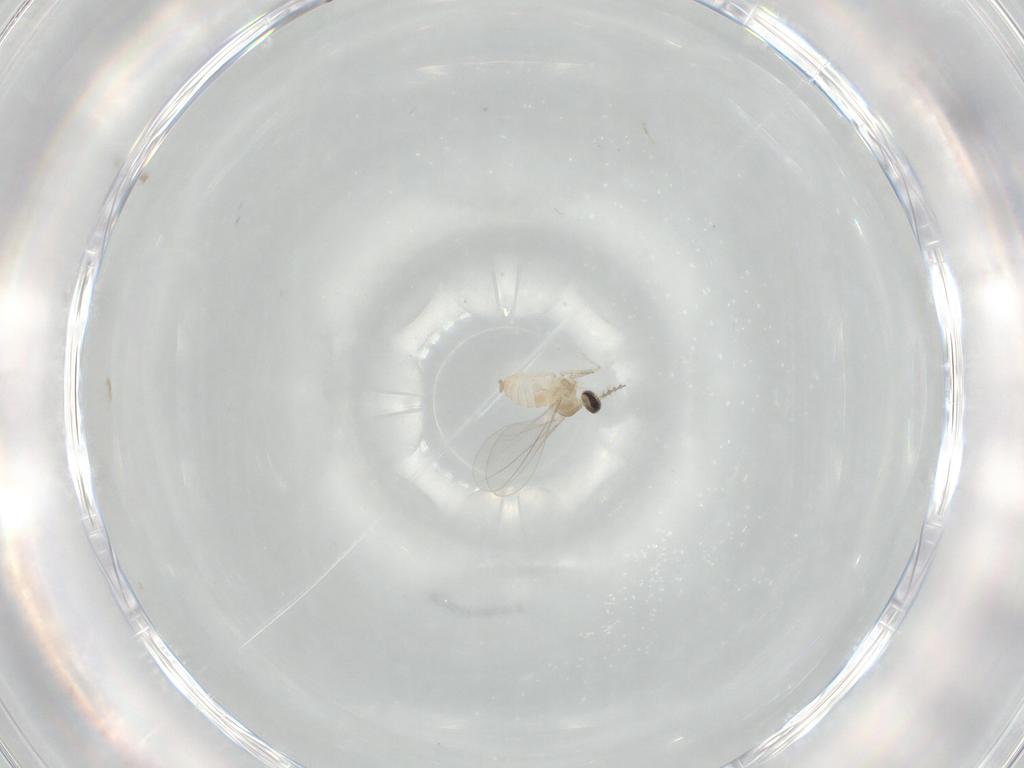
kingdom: Animalia
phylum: Arthropoda
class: Insecta
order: Diptera
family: Cecidomyiidae
